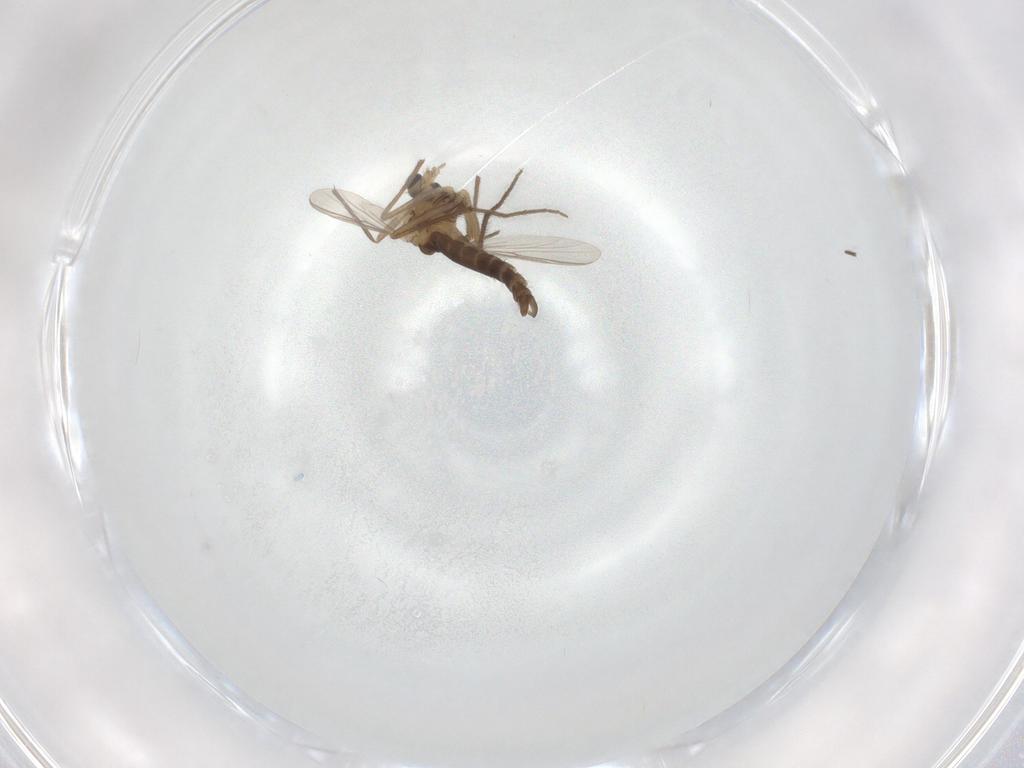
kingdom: Animalia
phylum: Arthropoda
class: Insecta
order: Diptera
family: Chironomidae
